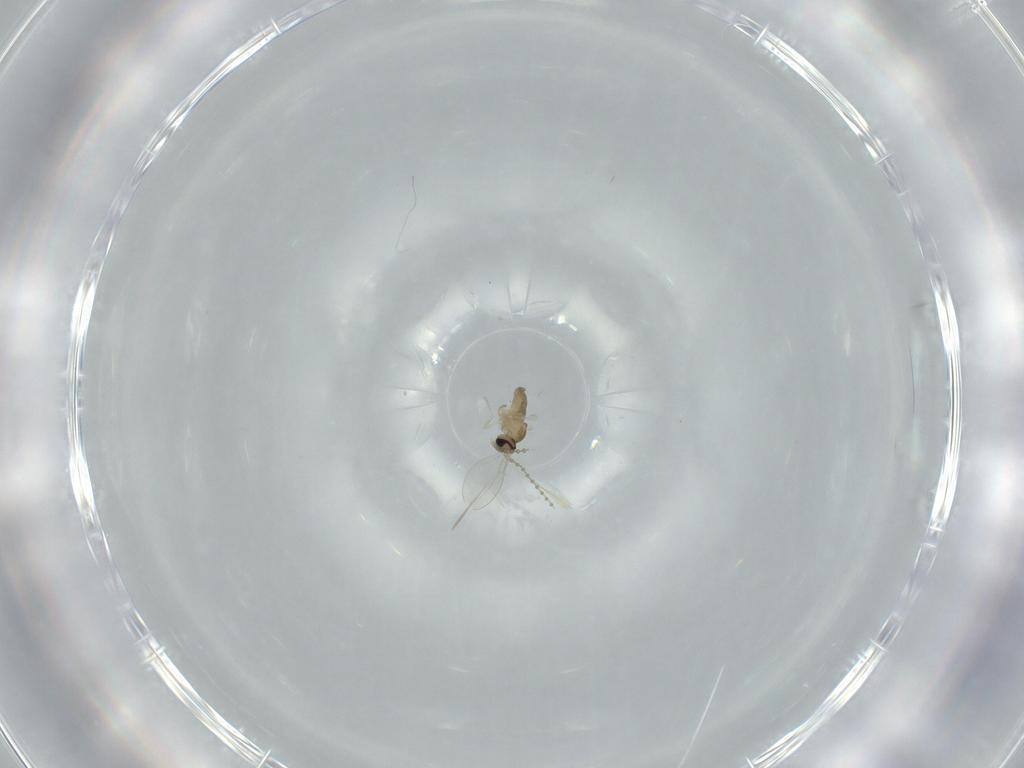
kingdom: Animalia
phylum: Arthropoda
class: Insecta
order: Diptera
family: Cecidomyiidae
